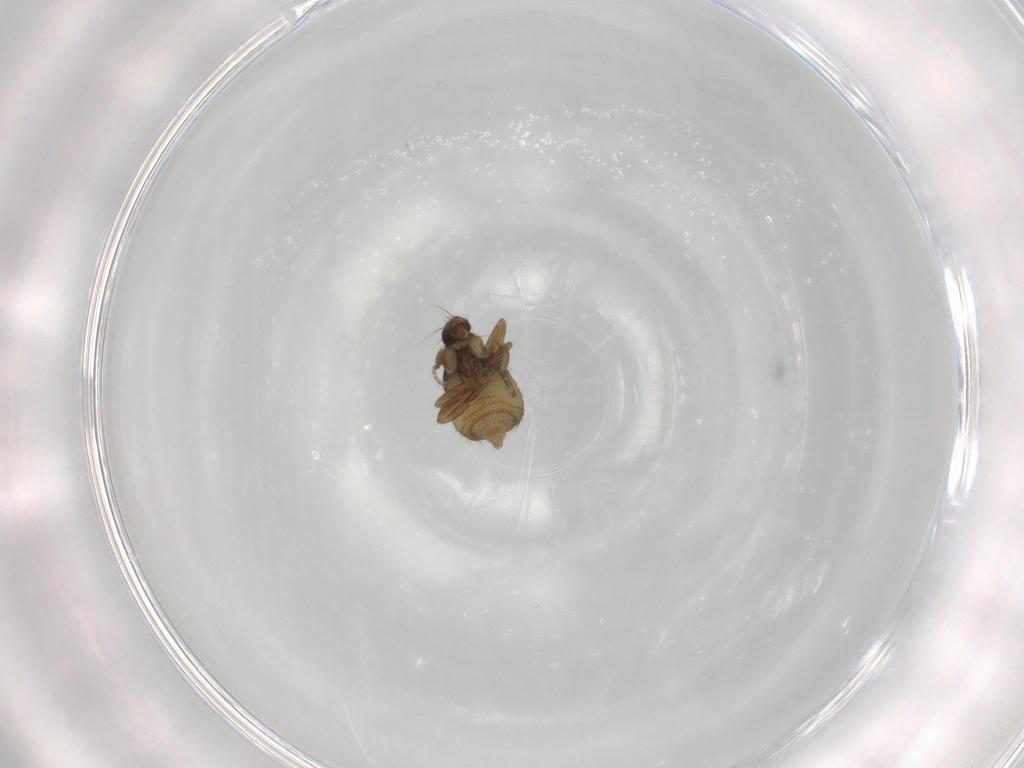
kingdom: Animalia
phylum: Arthropoda
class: Insecta
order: Diptera
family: Phoridae
